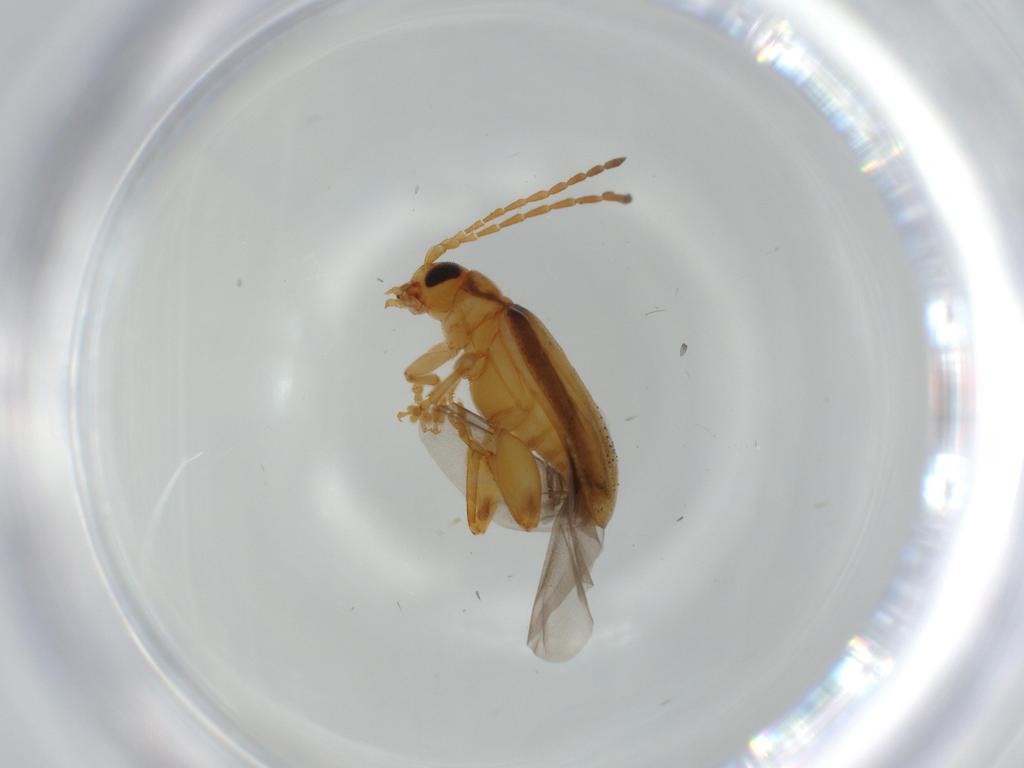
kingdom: Animalia
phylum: Arthropoda
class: Insecta
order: Coleoptera
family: Chrysomelidae
